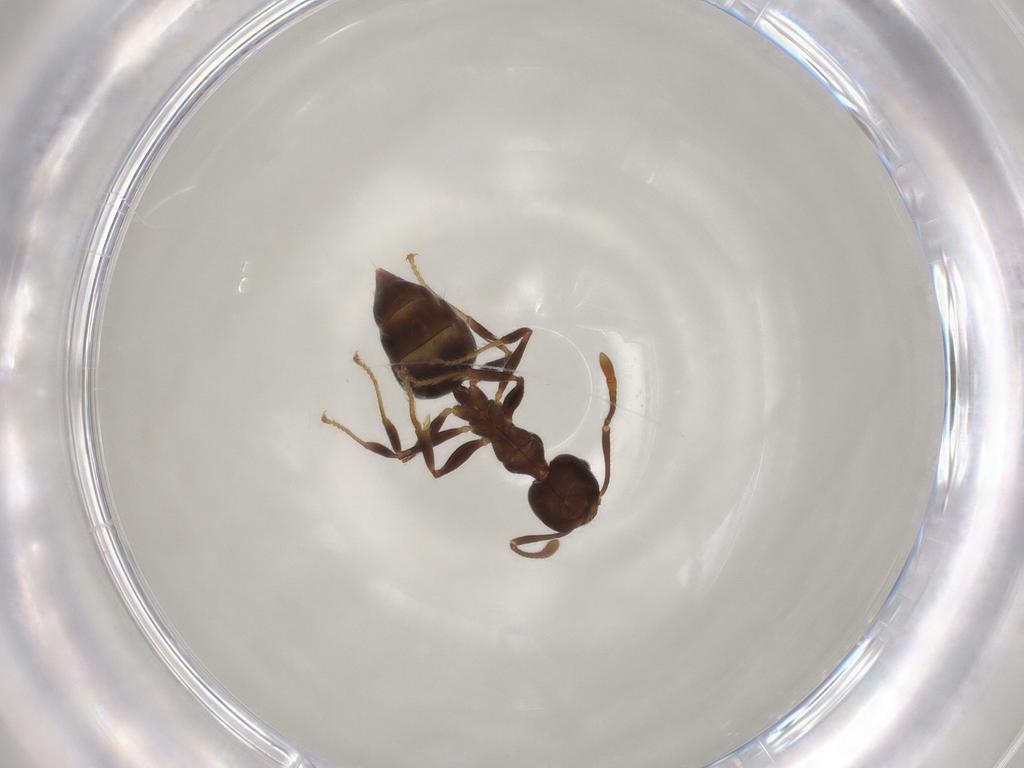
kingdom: Animalia
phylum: Arthropoda
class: Insecta
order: Hymenoptera
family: Formicidae
